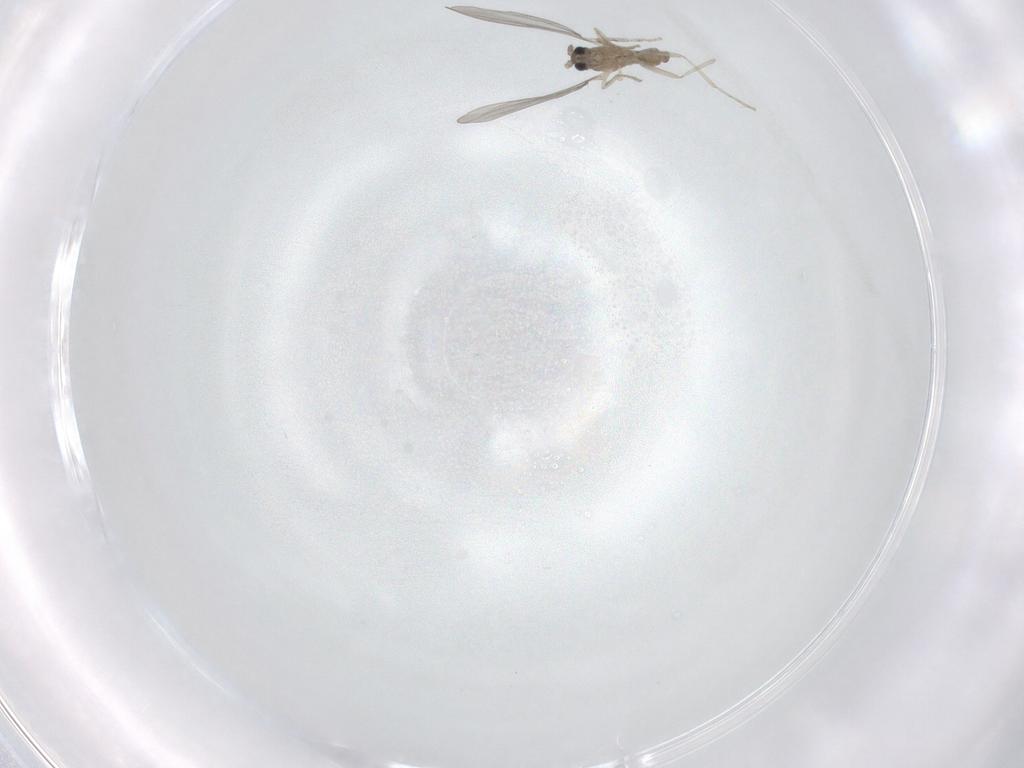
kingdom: Animalia
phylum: Arthropoda
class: Insecta
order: Diptera
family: Cecidomyiidae
